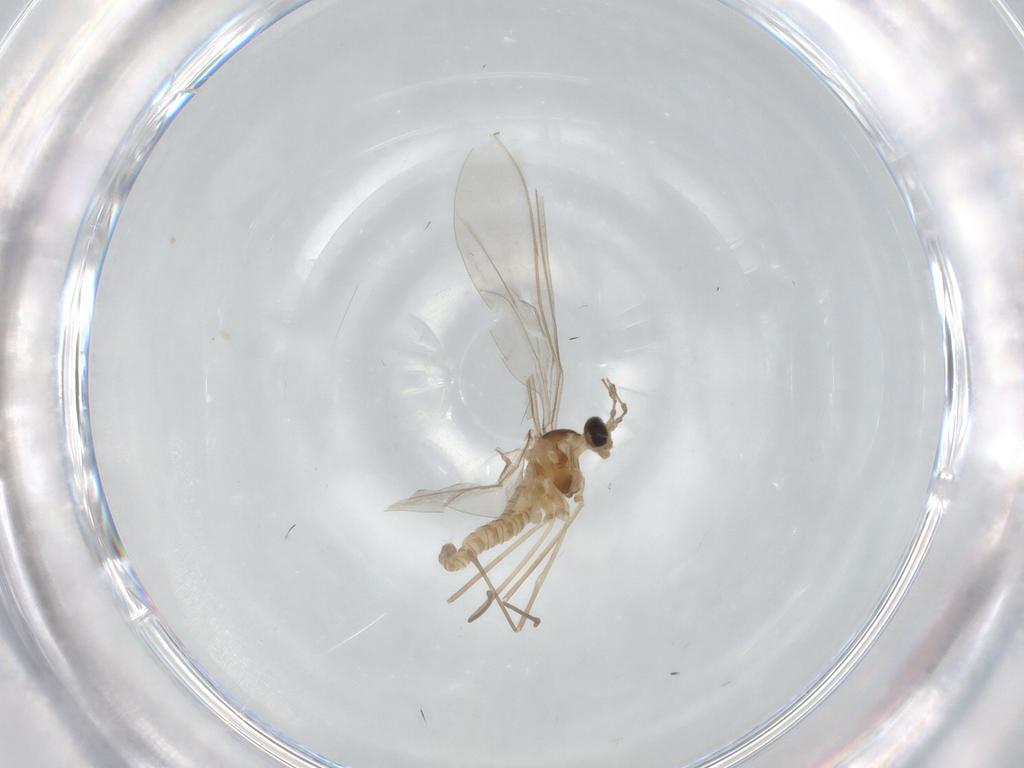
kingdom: Animalia
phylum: Arthropoda
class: Insecta
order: Diptera
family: Cecidomyiidae
